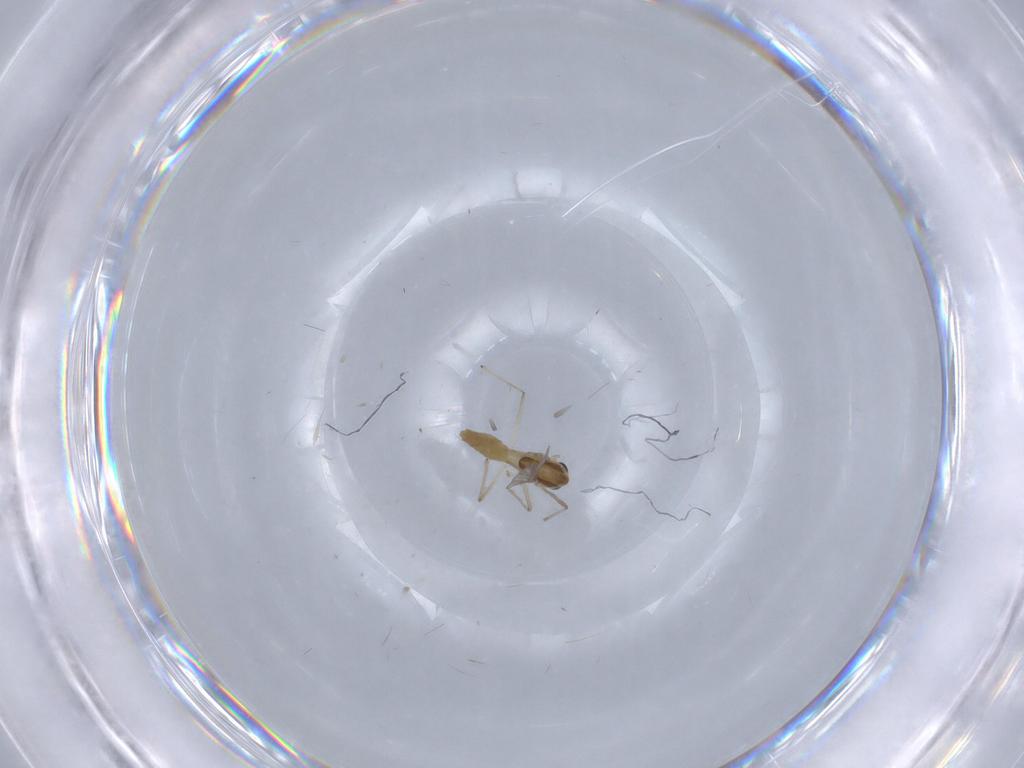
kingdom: Animalia
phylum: Arthropoda
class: Insecta
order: Diptera
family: Chironomidae
